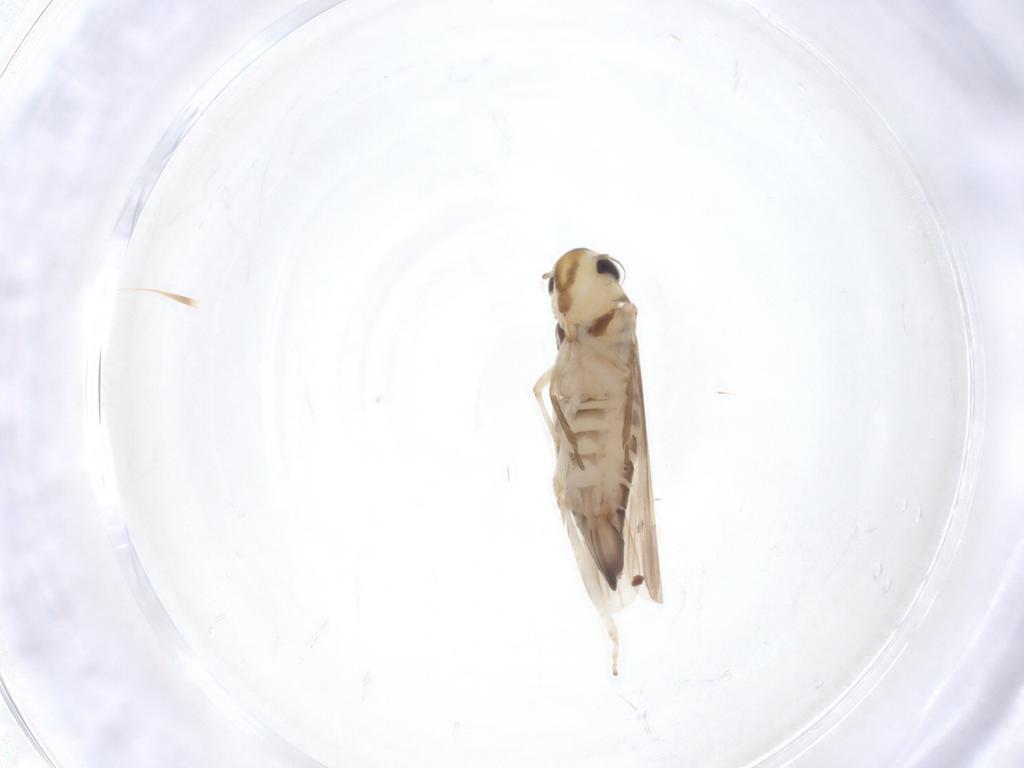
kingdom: Animalia
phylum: Arthropoda
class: Insecta
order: Hemiptera
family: Cicadellidae
